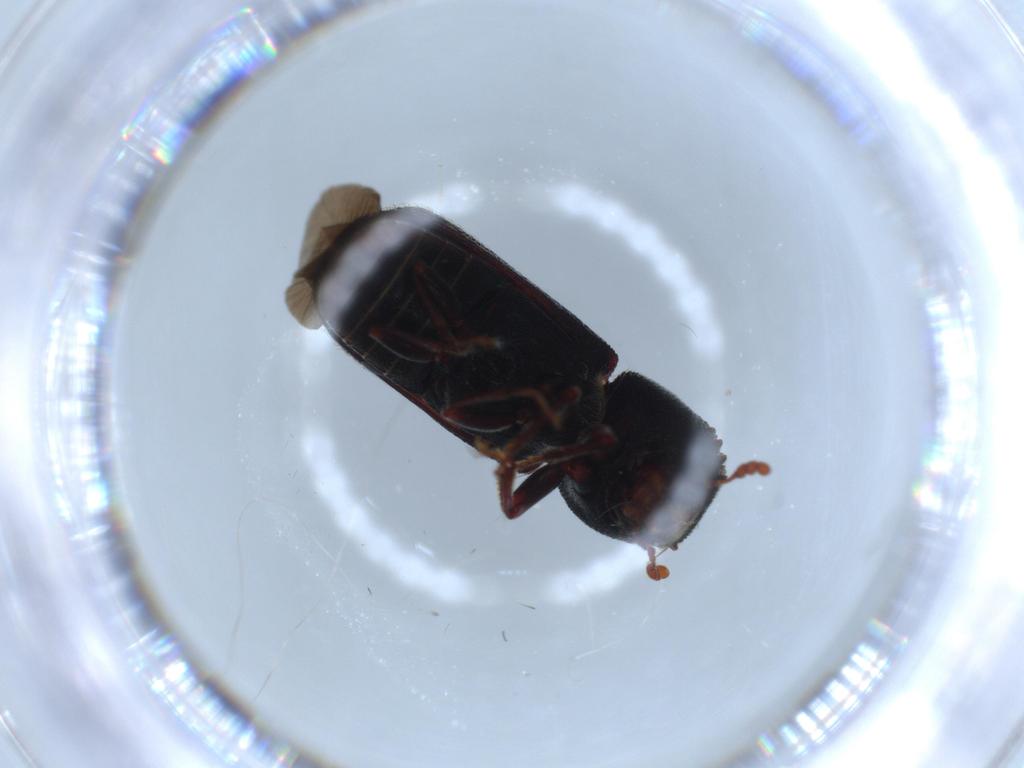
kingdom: Animalia
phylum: Arthropoda
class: Insecta
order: Coleoptera
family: Bostrichidae
